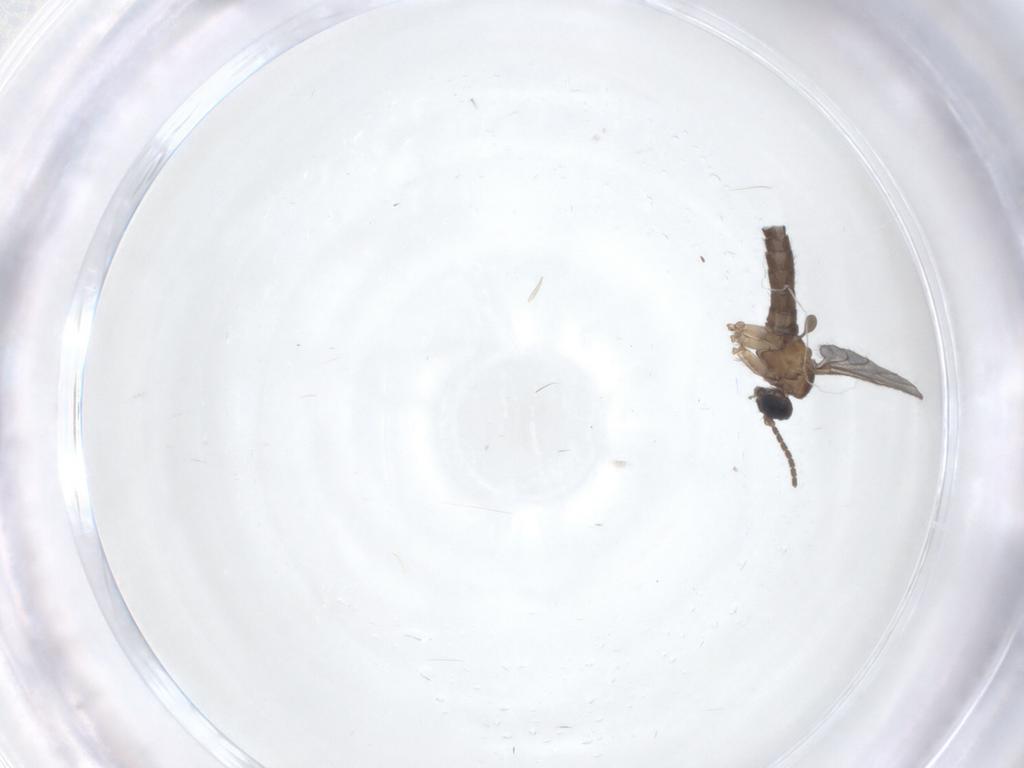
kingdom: Animalia
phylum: Arthropoda
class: Insecta
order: Diptera
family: Sciaridae
